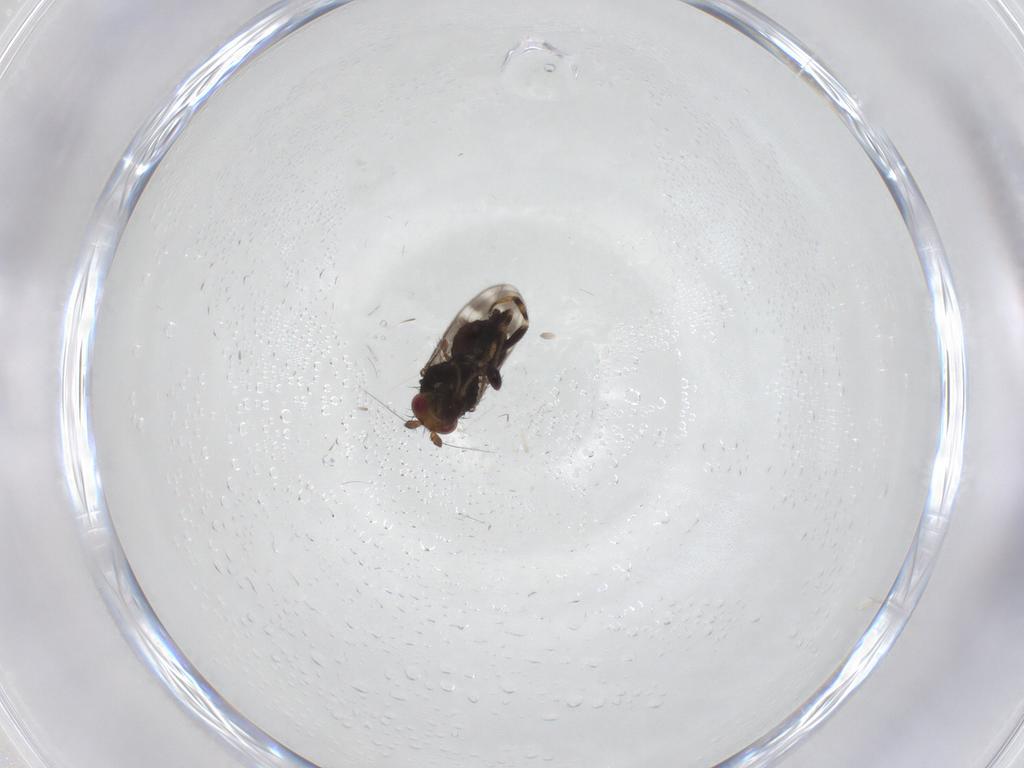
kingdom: Animalia
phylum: Arthropoda
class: Insecta
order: Diptera
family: Sphaeroceridae
